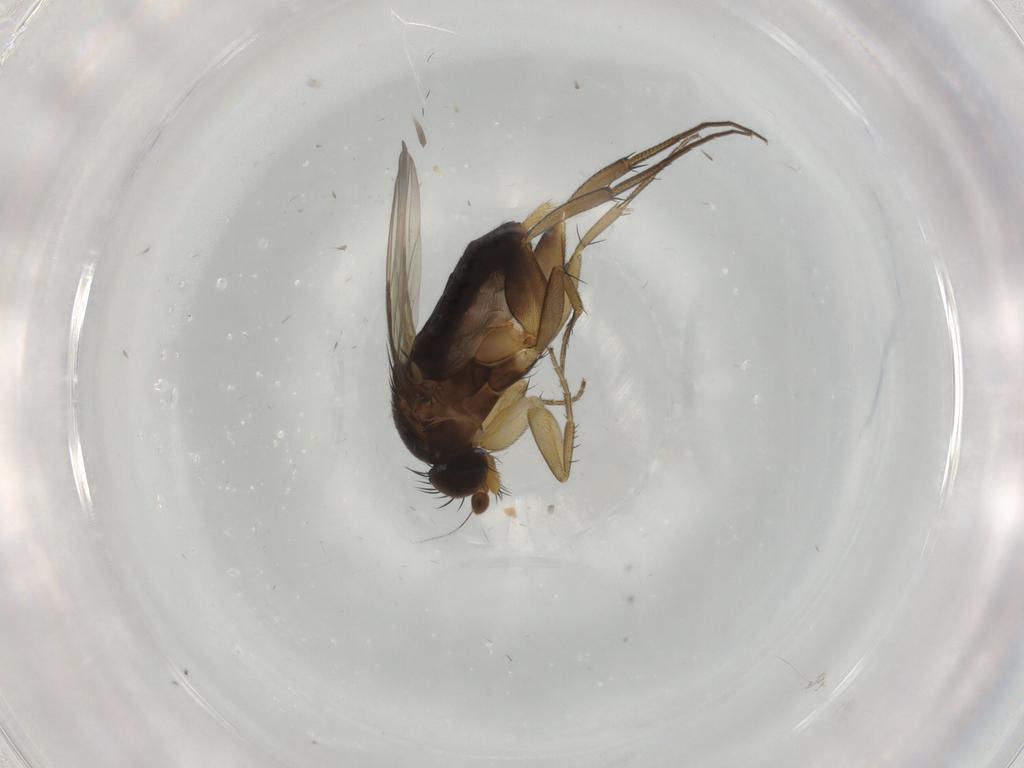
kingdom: Animalia
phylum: Arthropoda
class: Insecta
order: Diptera
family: Phoridae
